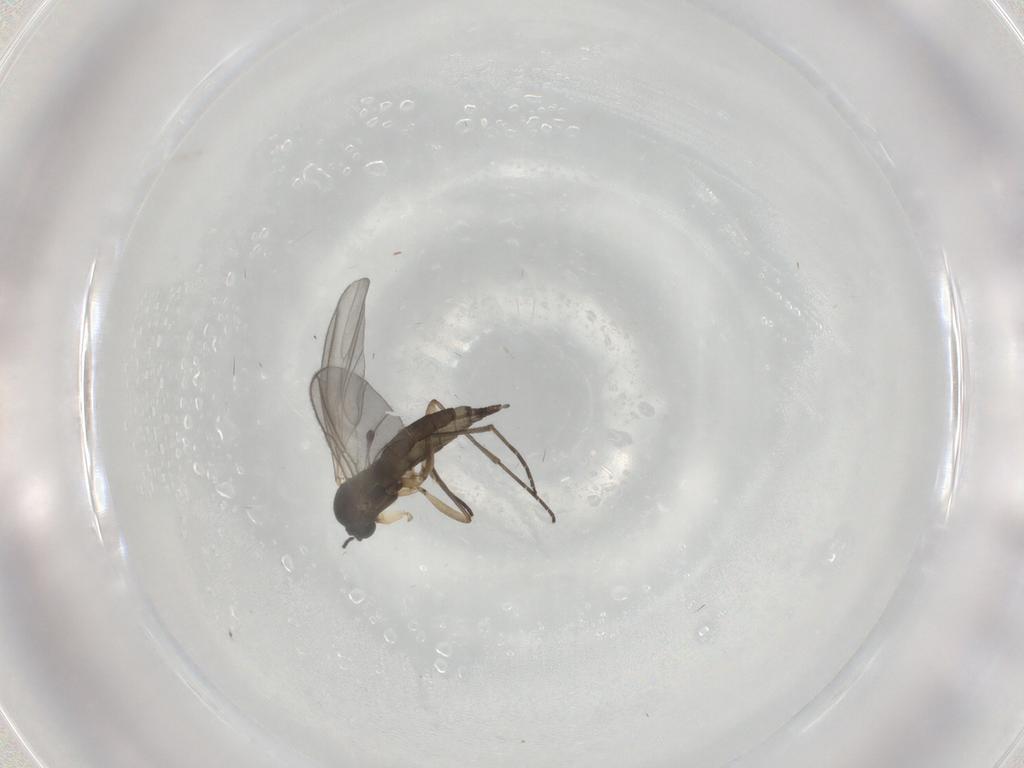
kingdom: Animalia
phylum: Arthropoda
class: Insecta
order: Diptera
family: Sciaridae
